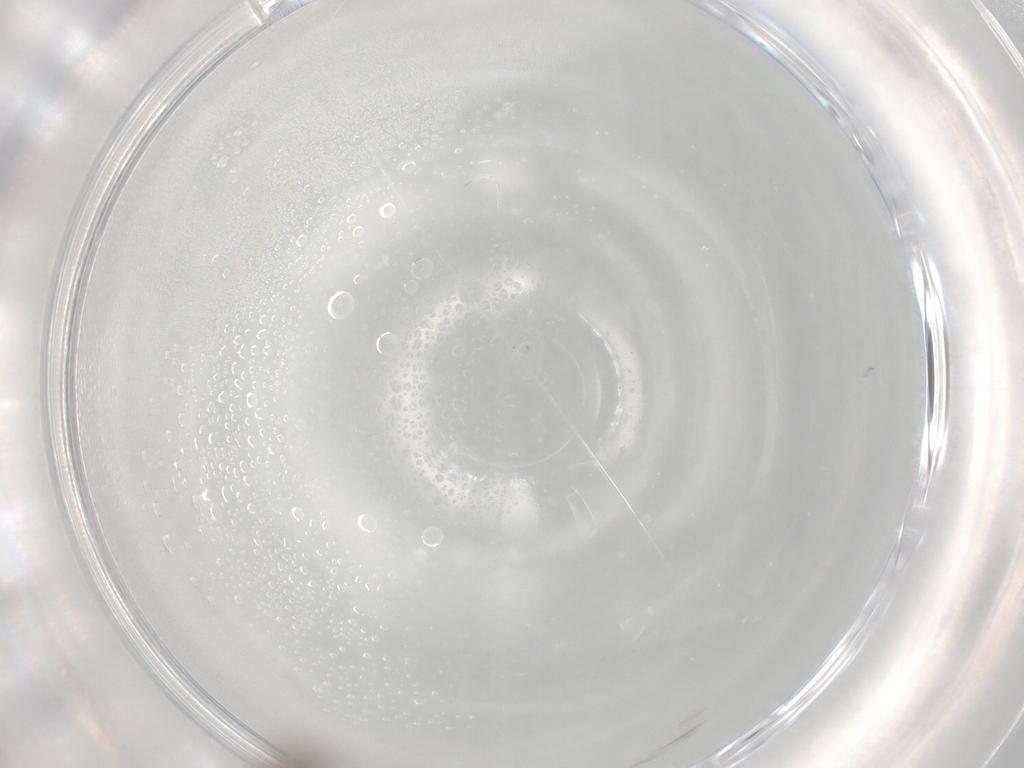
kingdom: Animalia
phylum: Arthropoda
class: Insecta
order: Diptera
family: Chironomidae
